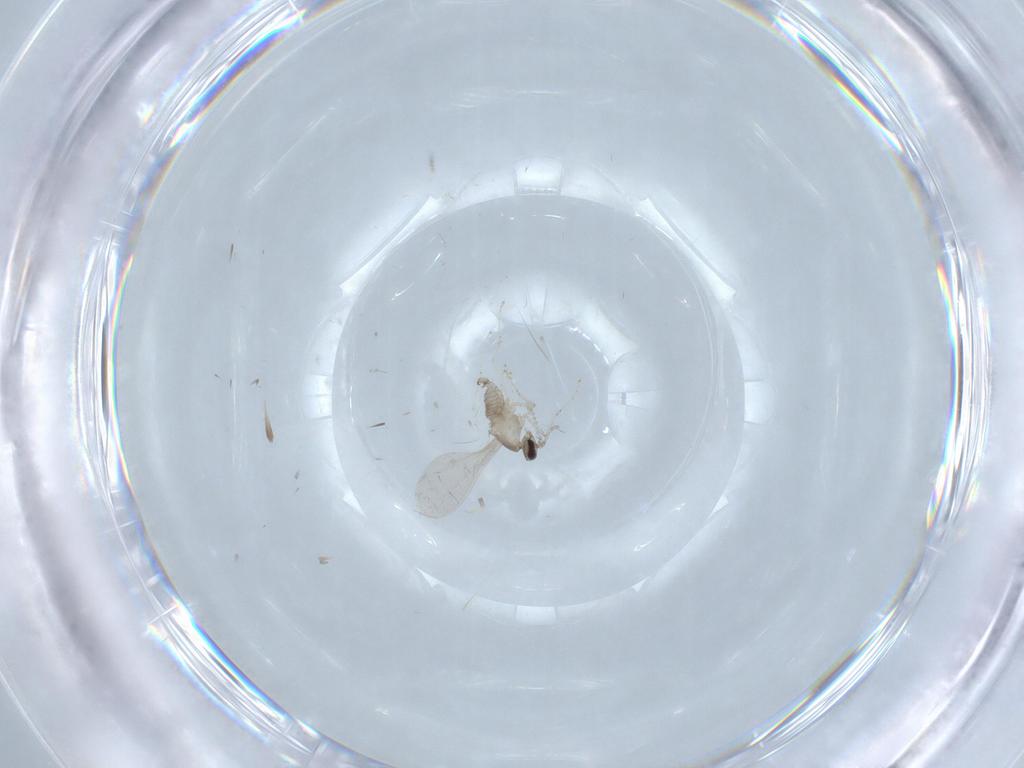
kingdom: Animalia
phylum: Arthropoda
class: Insecta
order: Diptera
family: Cecidomyiidae
